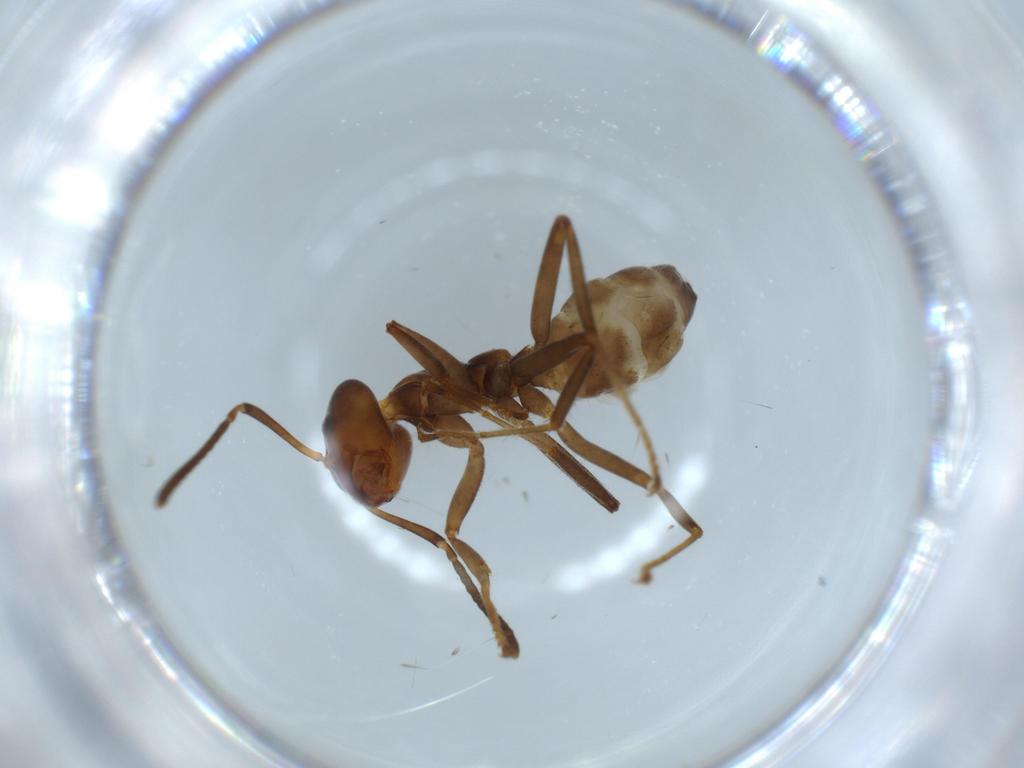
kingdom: Animalia
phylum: Arthropoda
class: Insecta
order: Hymenoptera
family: Formicidae
